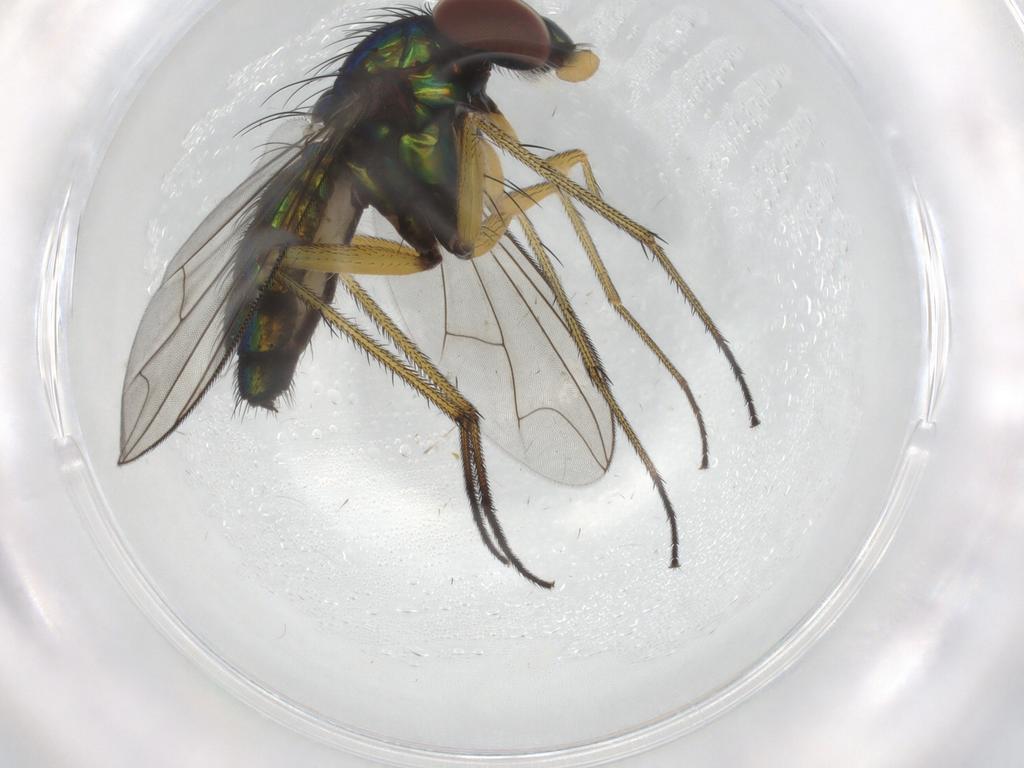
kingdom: Animalia
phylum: Arthropoda
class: Insecta
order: Diptera
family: Dolichopodidae
